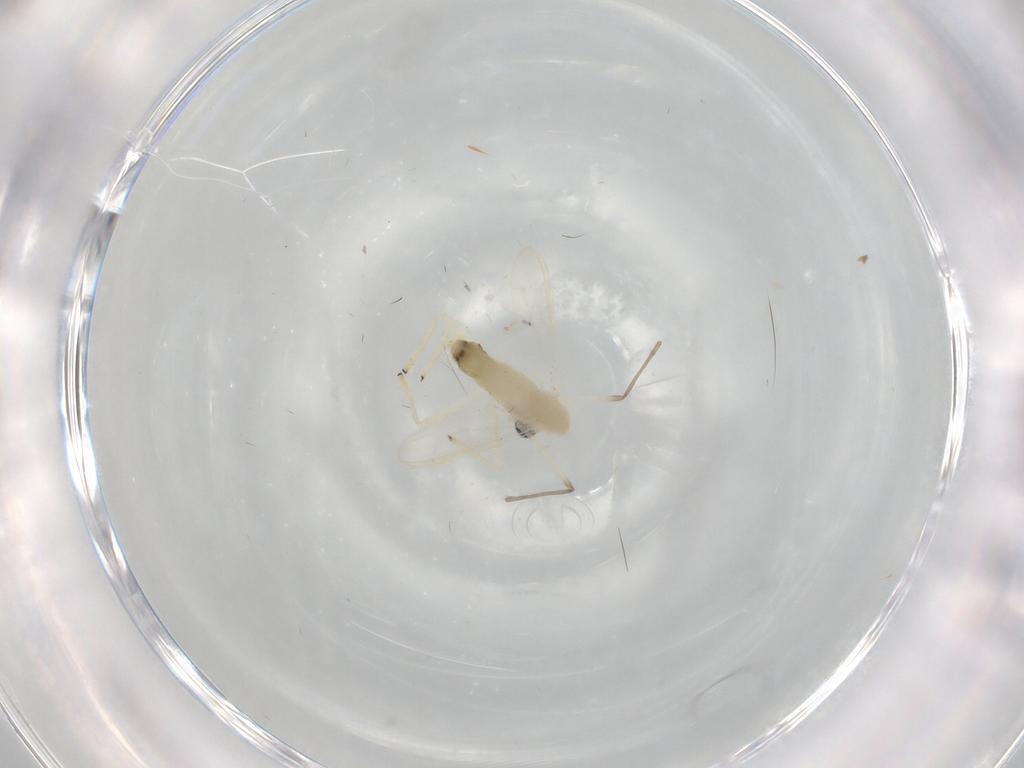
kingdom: Animalia
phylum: Arthropoda
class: Insecta
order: Diptera
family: Chironomidae
